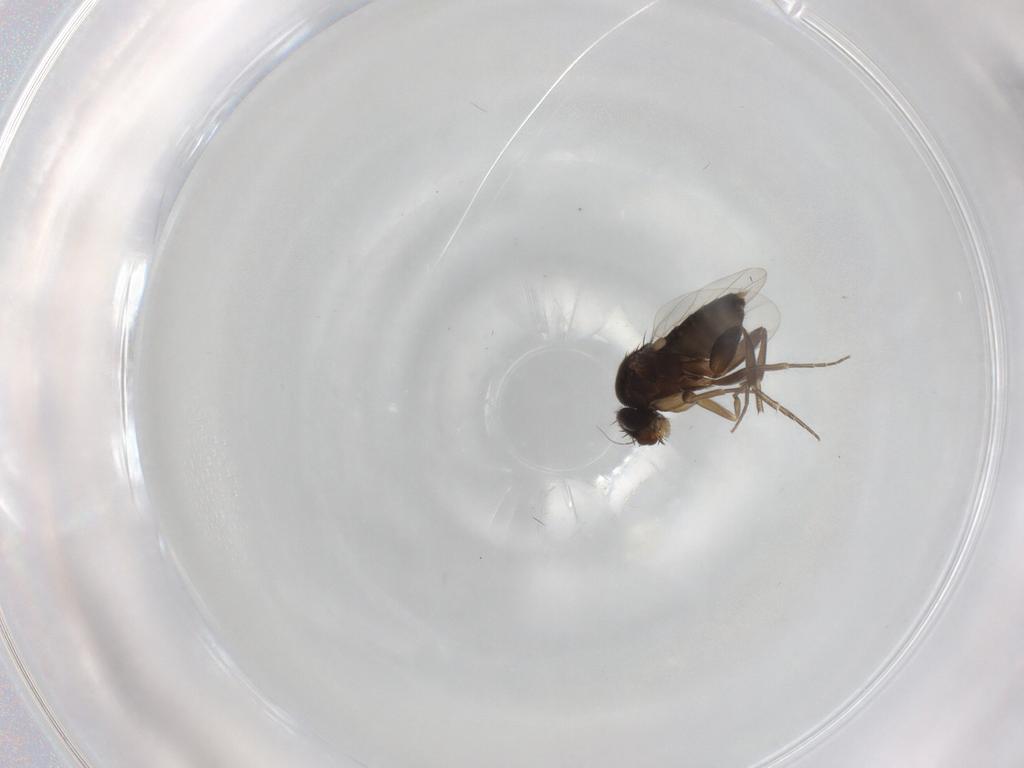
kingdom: Animalia
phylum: Arthropoda
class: Insecta
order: Diptera
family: Phoridae
